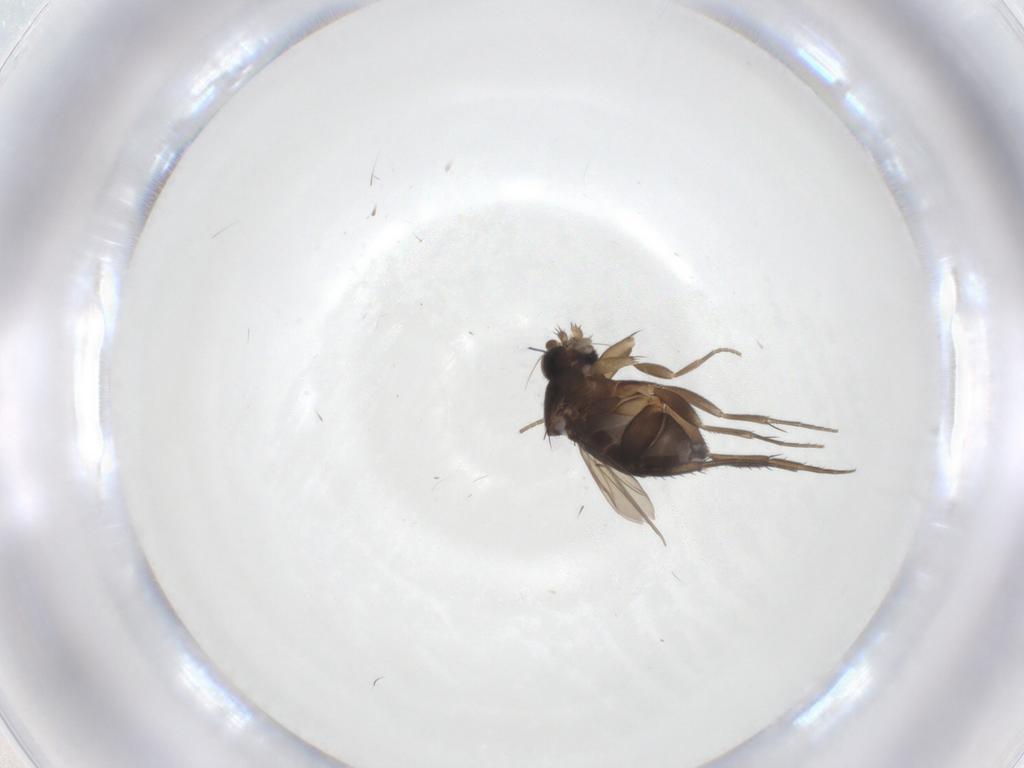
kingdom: Animalia
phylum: Arthropoda
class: Insecta
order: Diptera
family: Phoridae
